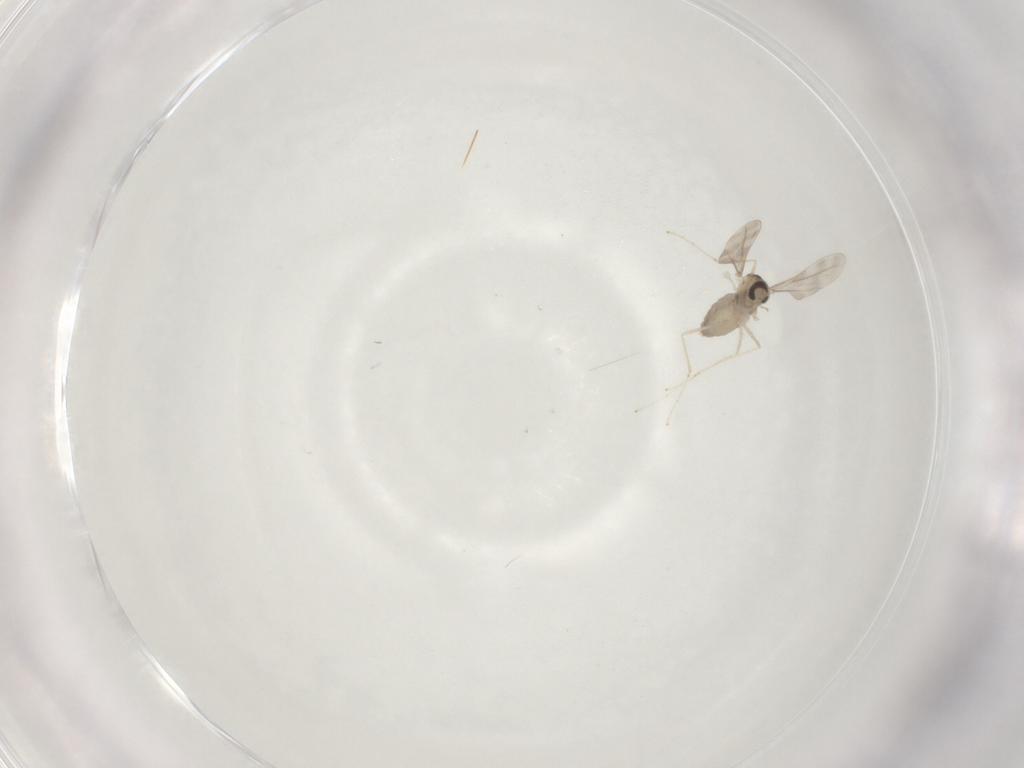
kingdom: Animalia
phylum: Arthropoda
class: Insecta
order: Diptera
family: Cecidomyiidae
